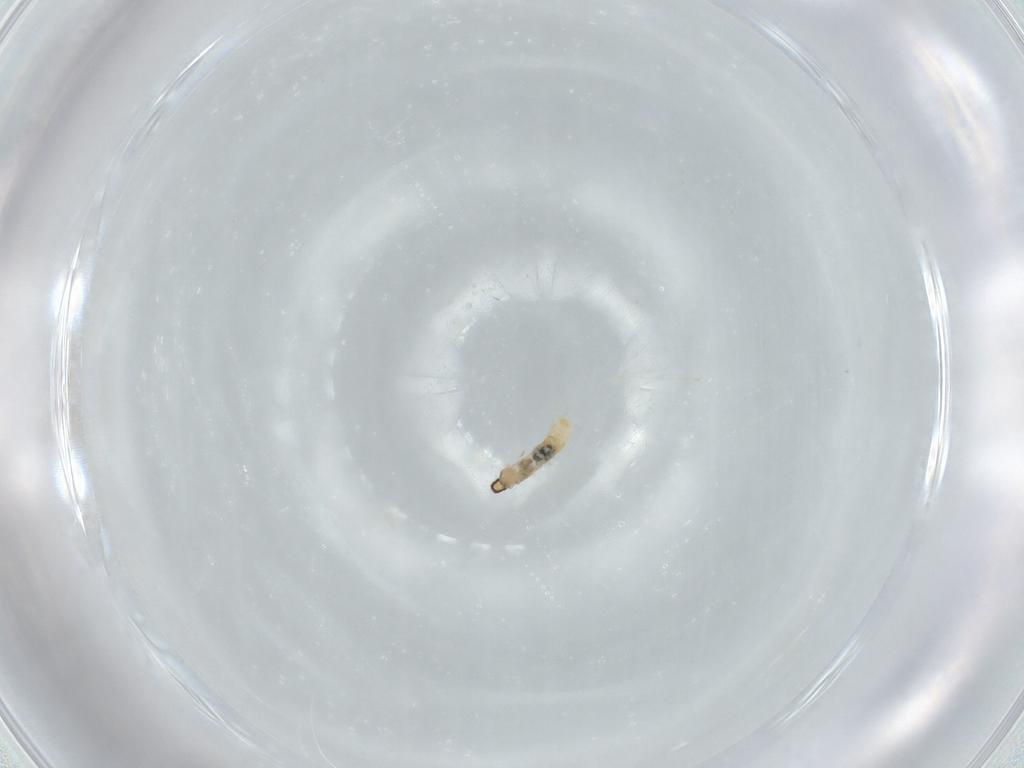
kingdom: Animalia
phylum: Arthropoda
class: Insecta
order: Diptera
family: Cecidomyiidae
